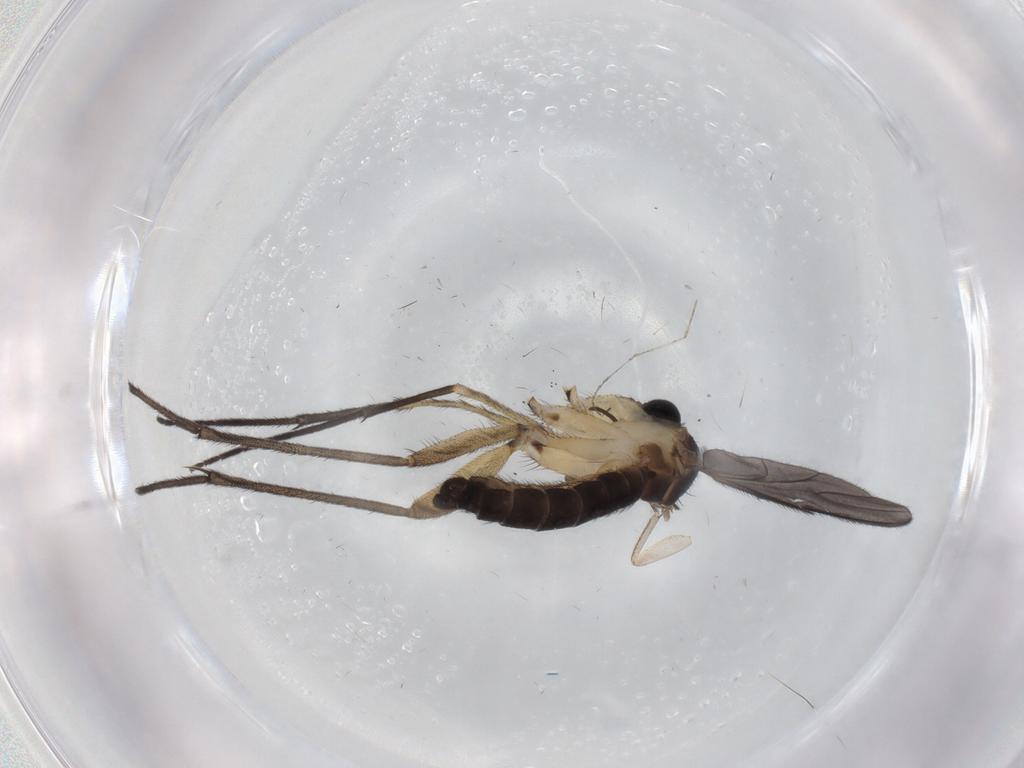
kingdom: Animalia
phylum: Arthropoda
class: Insecta
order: Diptera
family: Sciaridae
